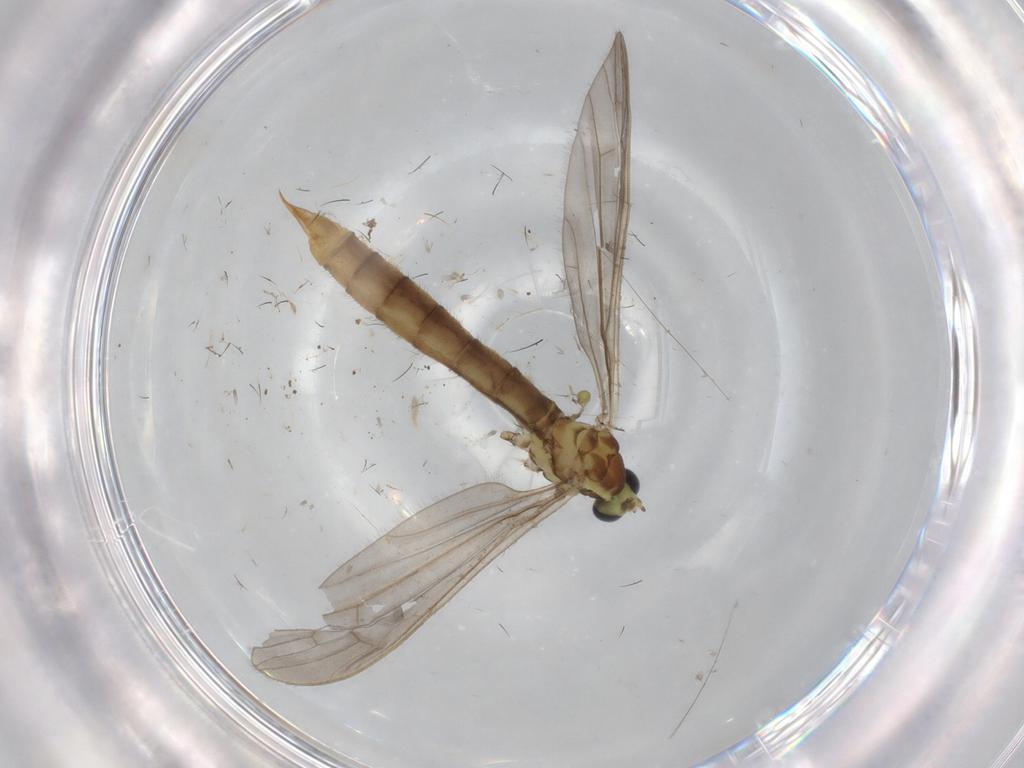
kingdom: Animalia
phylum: Arthropoda
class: Insecta
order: Diptera
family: Limoniidae
